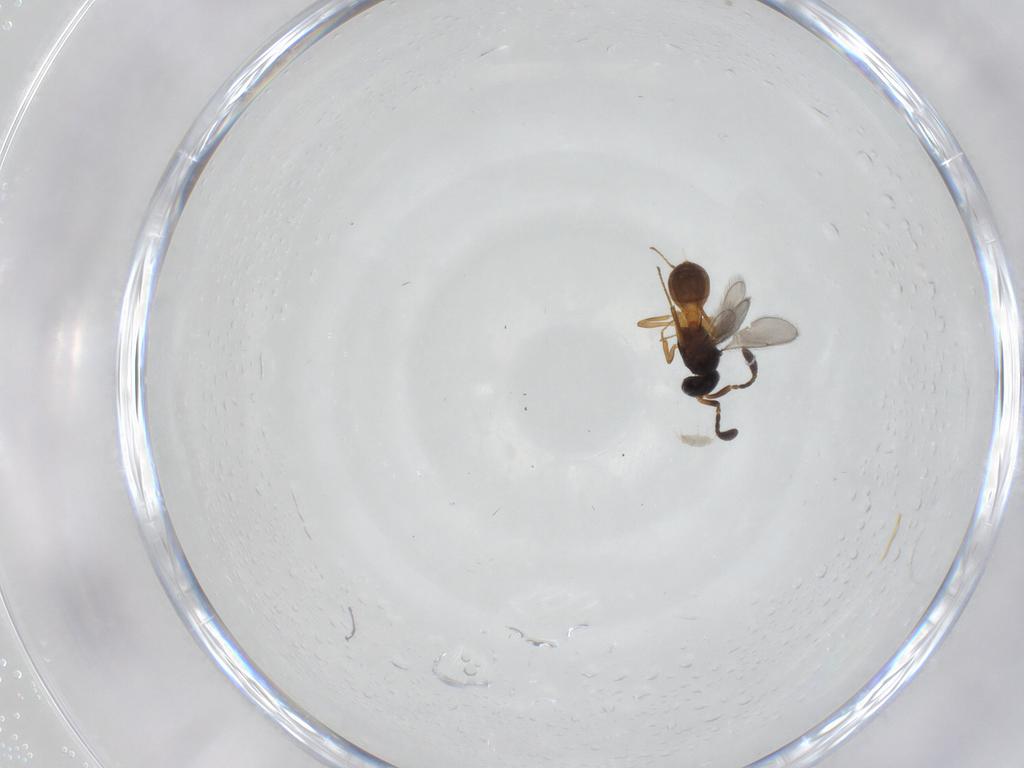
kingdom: Animalia
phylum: Arthropoda
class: Insecta
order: Hymenoptera
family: Scelionidae
